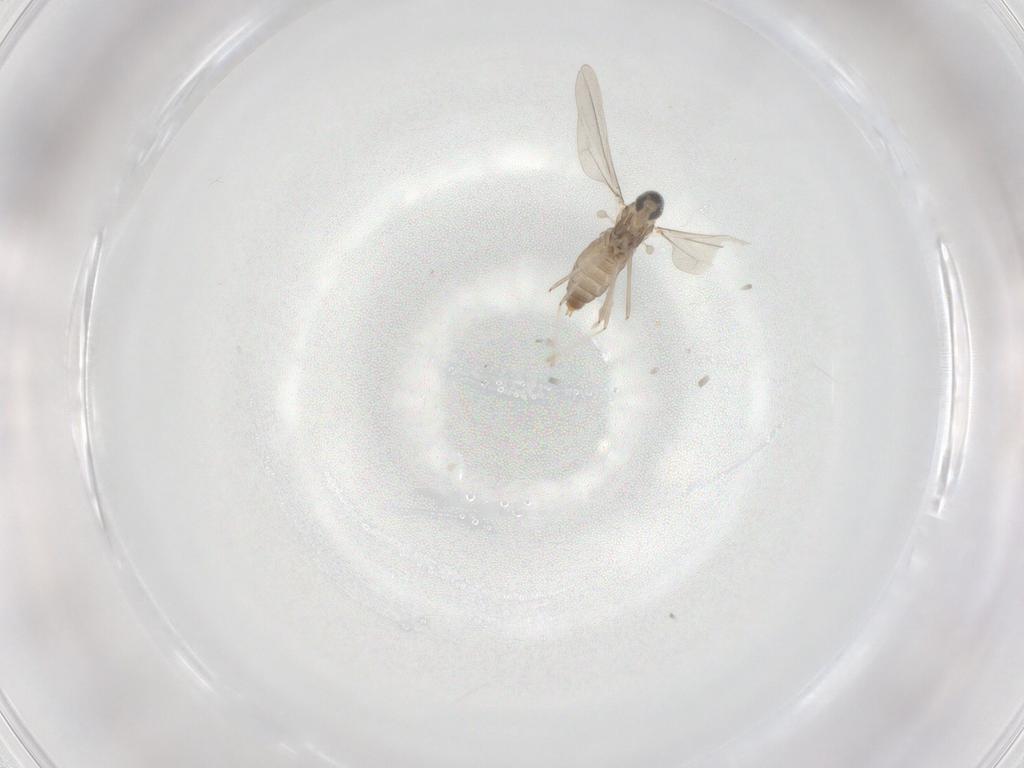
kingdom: Animalia
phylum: Arthropoda
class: Insecta
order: Diptera
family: Cecidomyiidae
